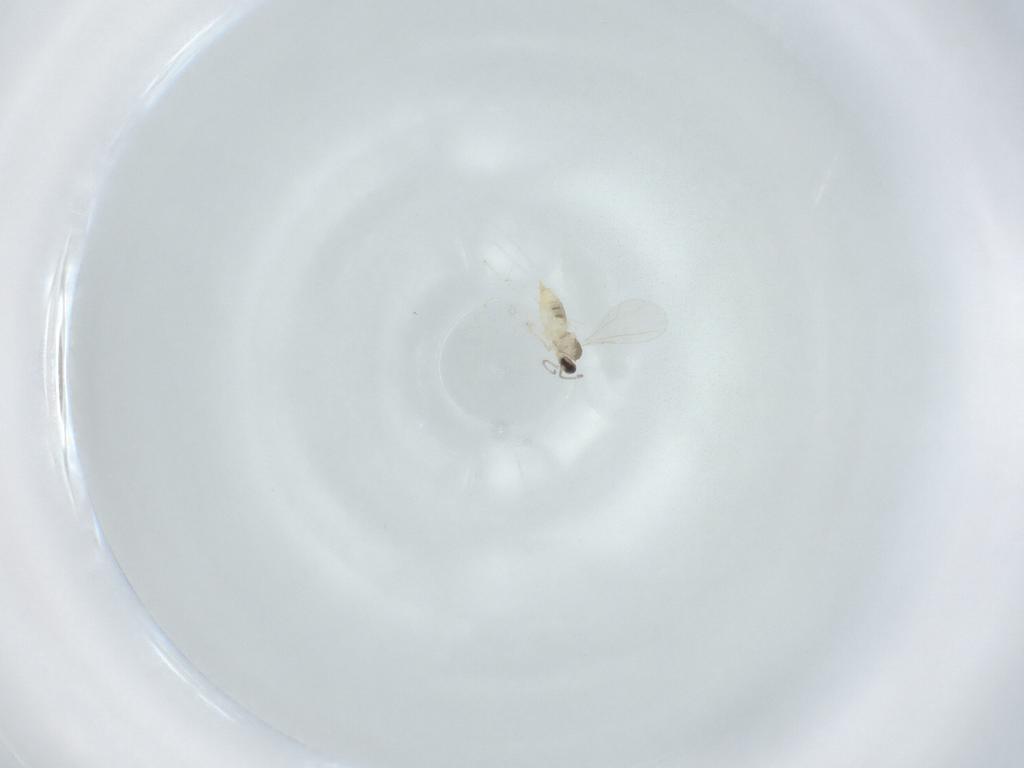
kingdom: Animalia
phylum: Arthropoda
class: Insecta
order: Diptera
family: Cecidomyiidae
